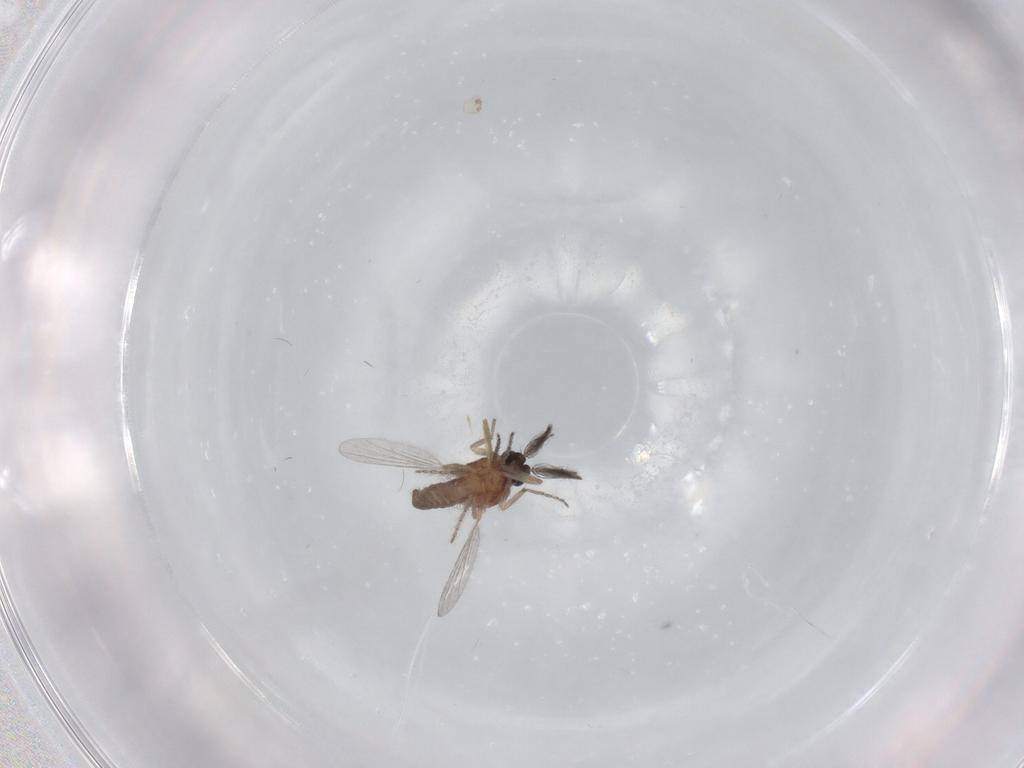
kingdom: Animalia
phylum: Arthropoda
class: Insecta
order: Diptera
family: Ceratopogonidae
